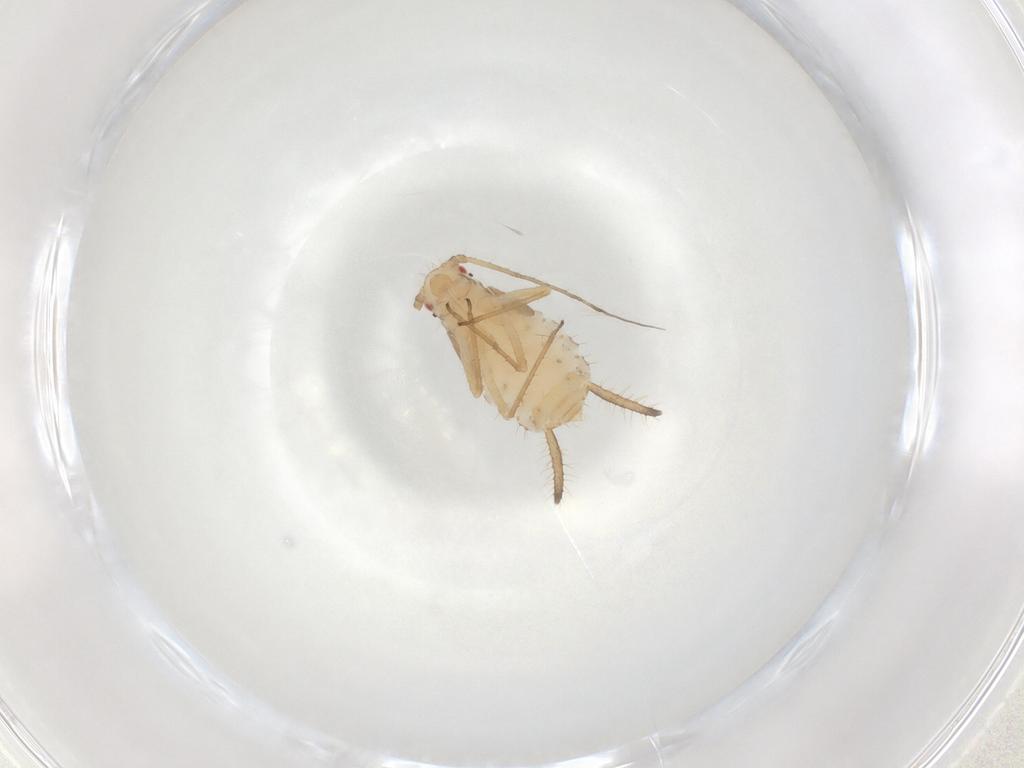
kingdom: Animalia
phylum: Arthropoda
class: Insecta
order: Hemiptera
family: Aphididae
